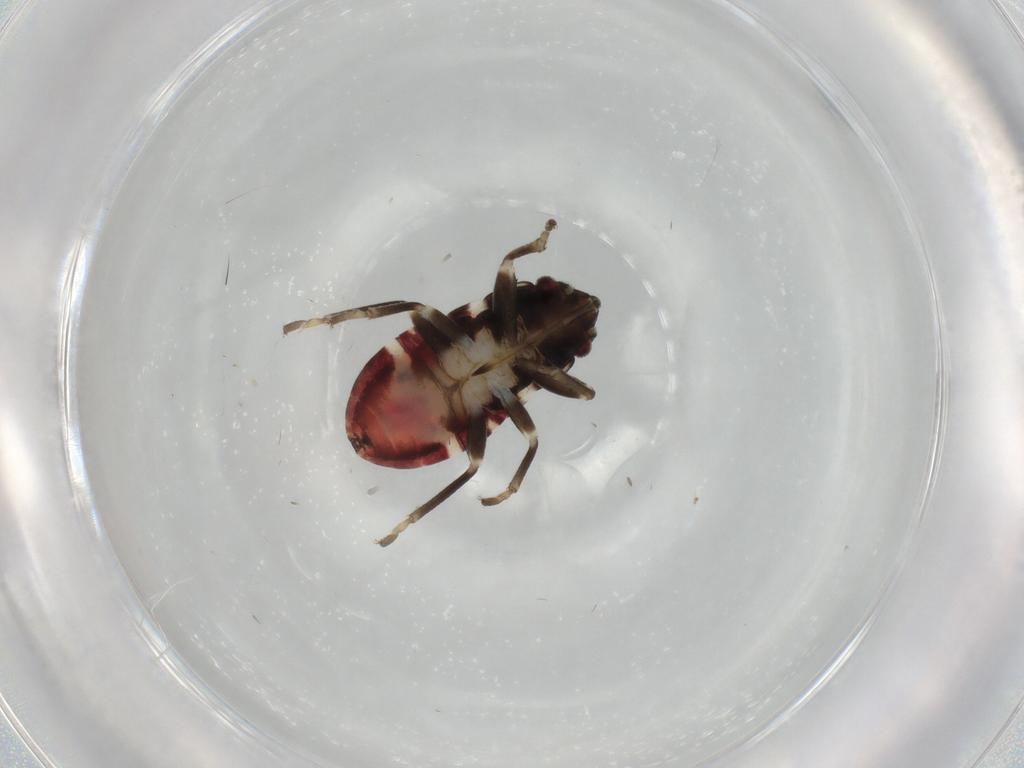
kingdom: Animalia
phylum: Arthropoda
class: Insecta
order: Hemiptera
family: Rhyparochromidae
